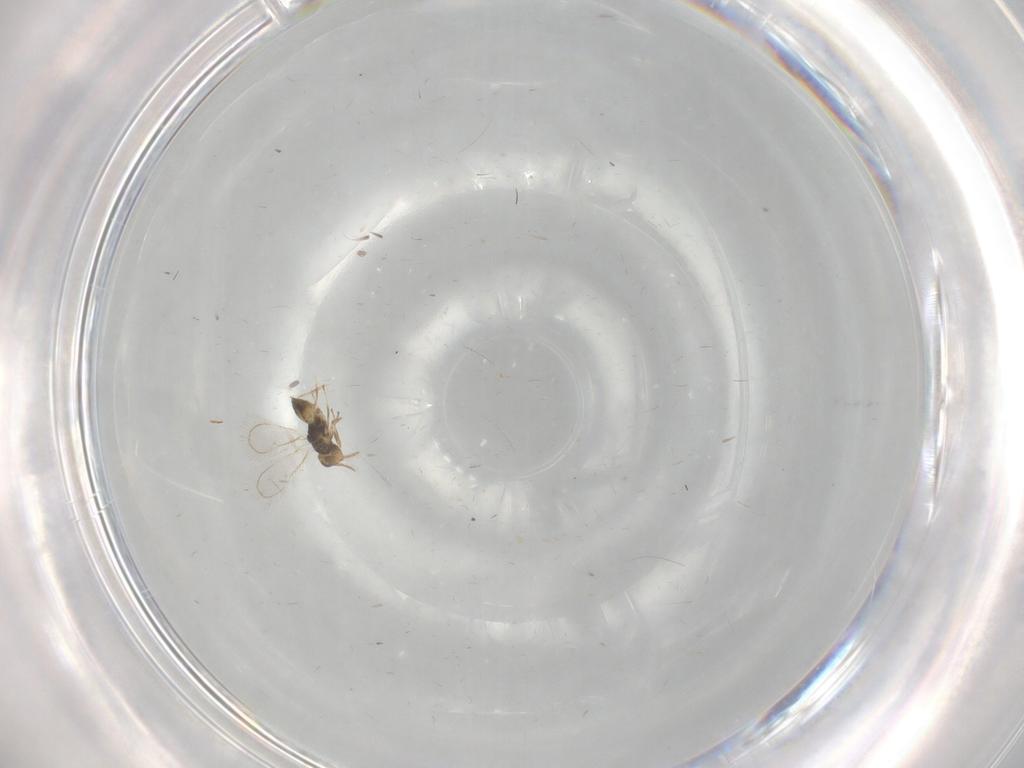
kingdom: Animalia
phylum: Arthropoda
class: Insecta
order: Hymenoptera
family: Eulophidae
